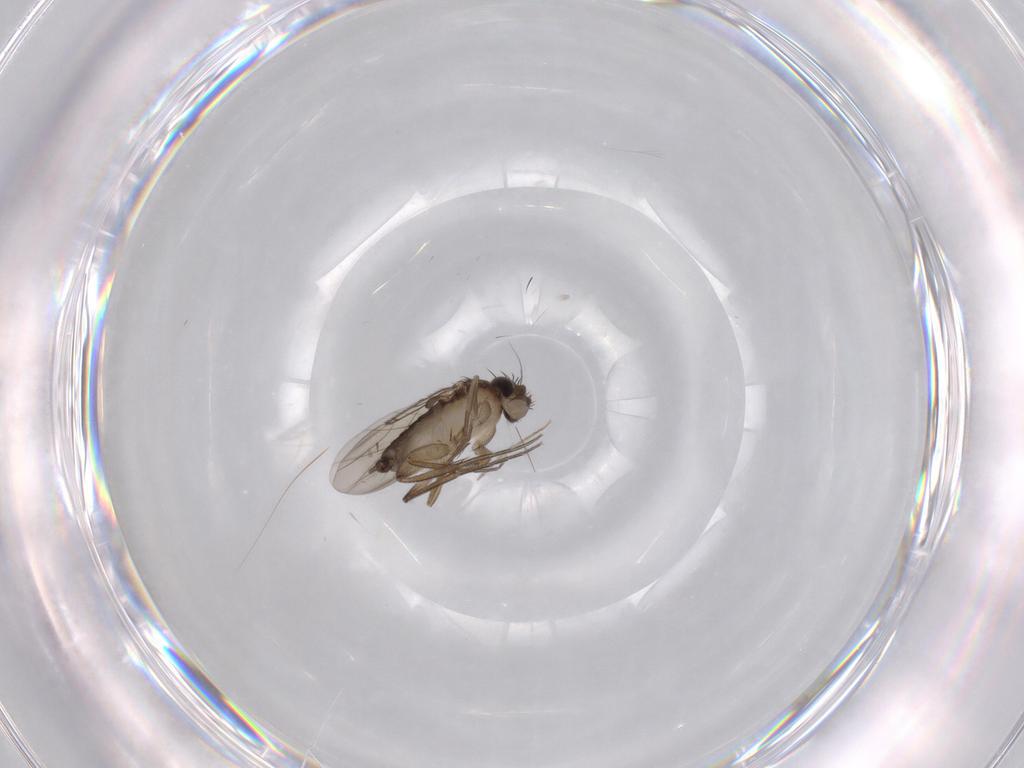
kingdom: Animalia
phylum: Arthropoda
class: Insecta
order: Diptera
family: Phoridae
